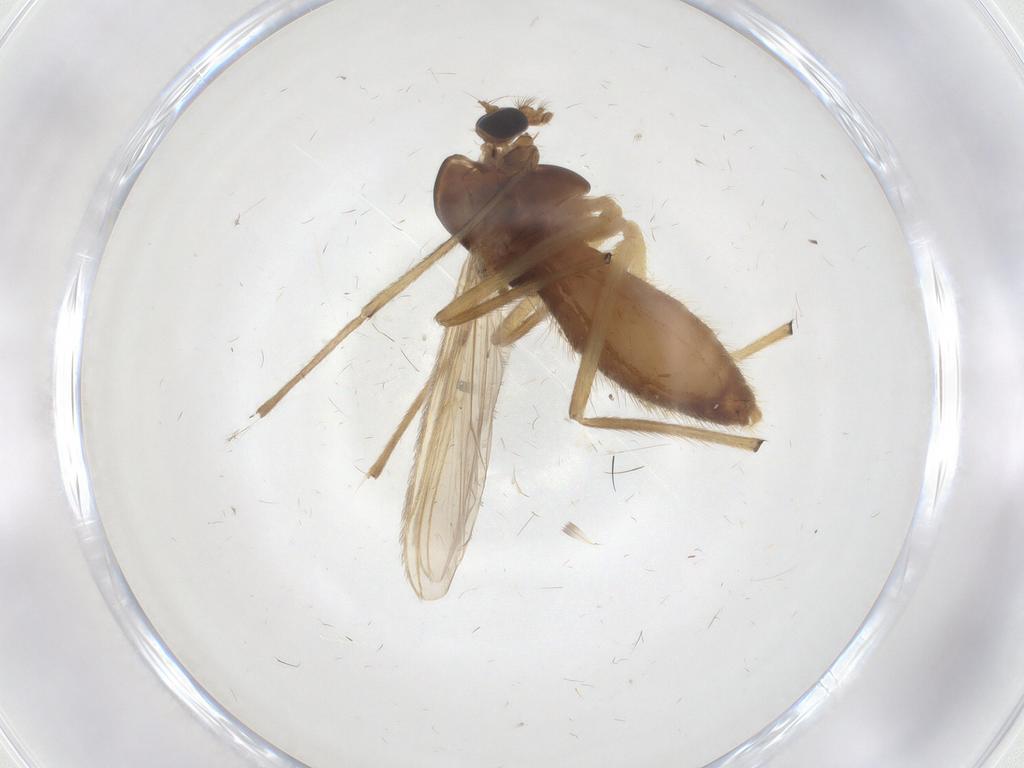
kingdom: Animalia
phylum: Arthropoda
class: Insecta
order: Diptera
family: Chironomidae
